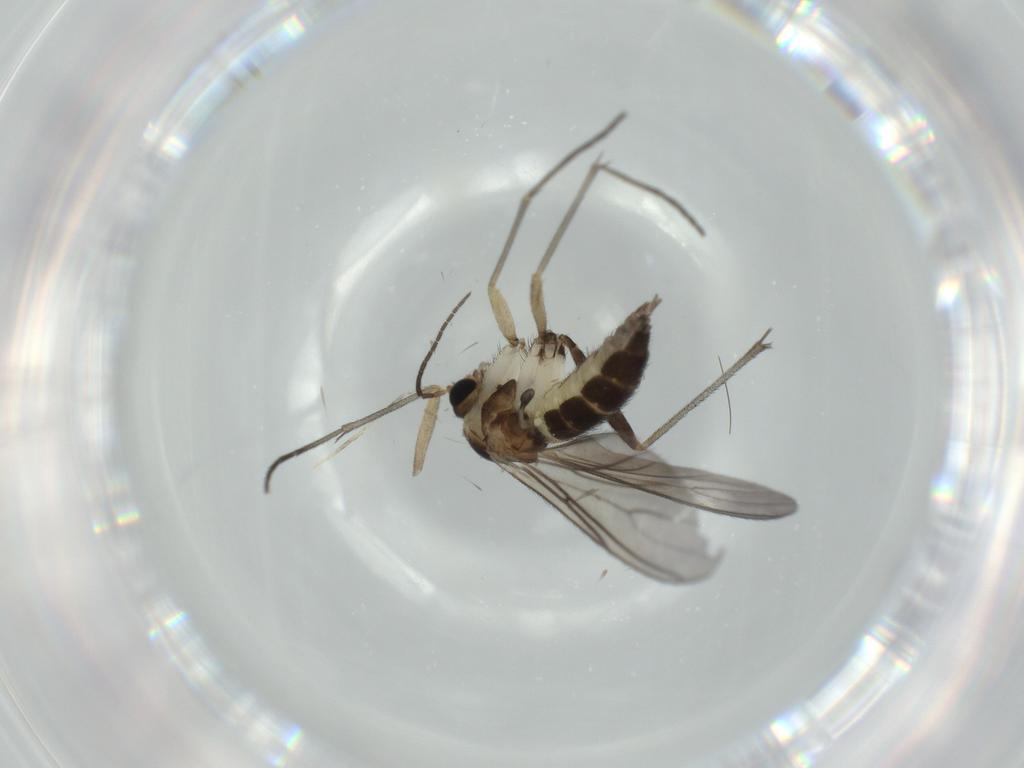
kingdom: Animalia
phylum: Arthropoda
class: Insecta
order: Diptera
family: Sciaridae
